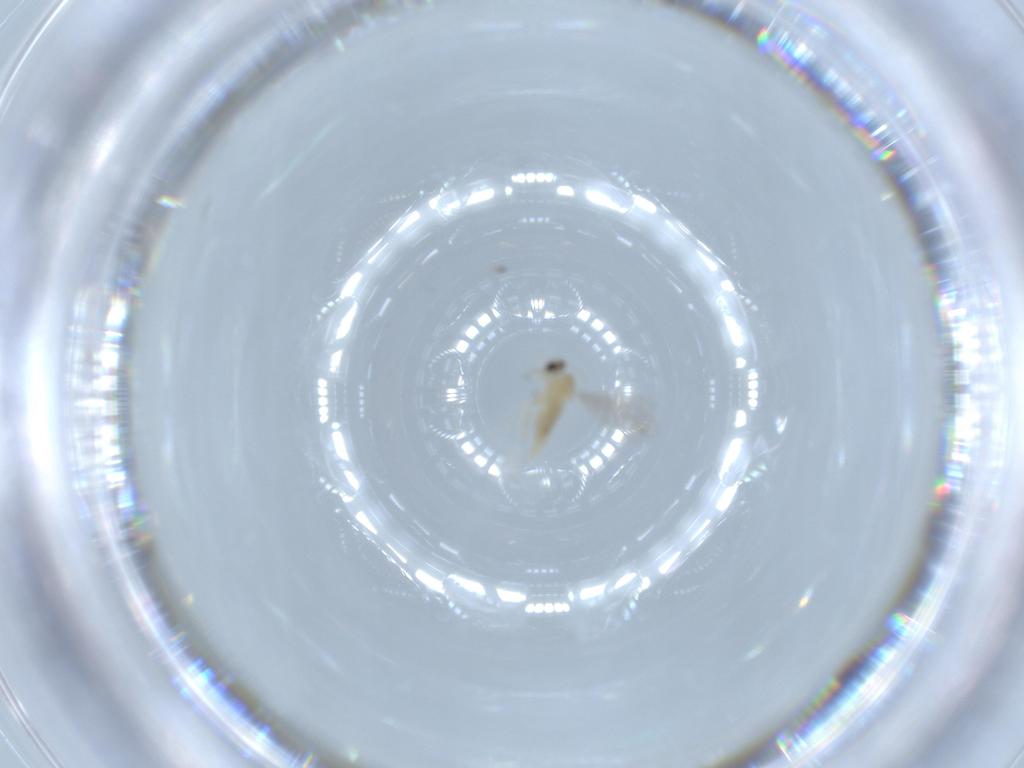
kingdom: Animalia
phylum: Arthropoda
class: Insecta
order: Diptera
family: Cecidomyiidae
